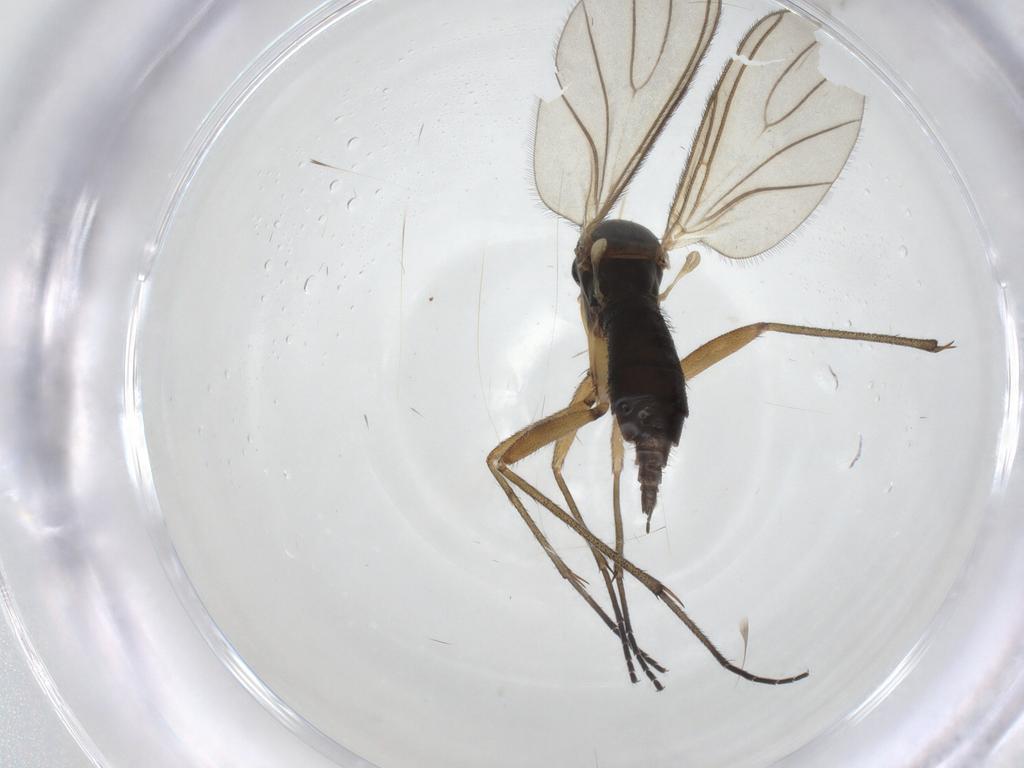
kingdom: Animalia
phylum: Arthropoda
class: Insecta
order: Diptera
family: Sciaridae
